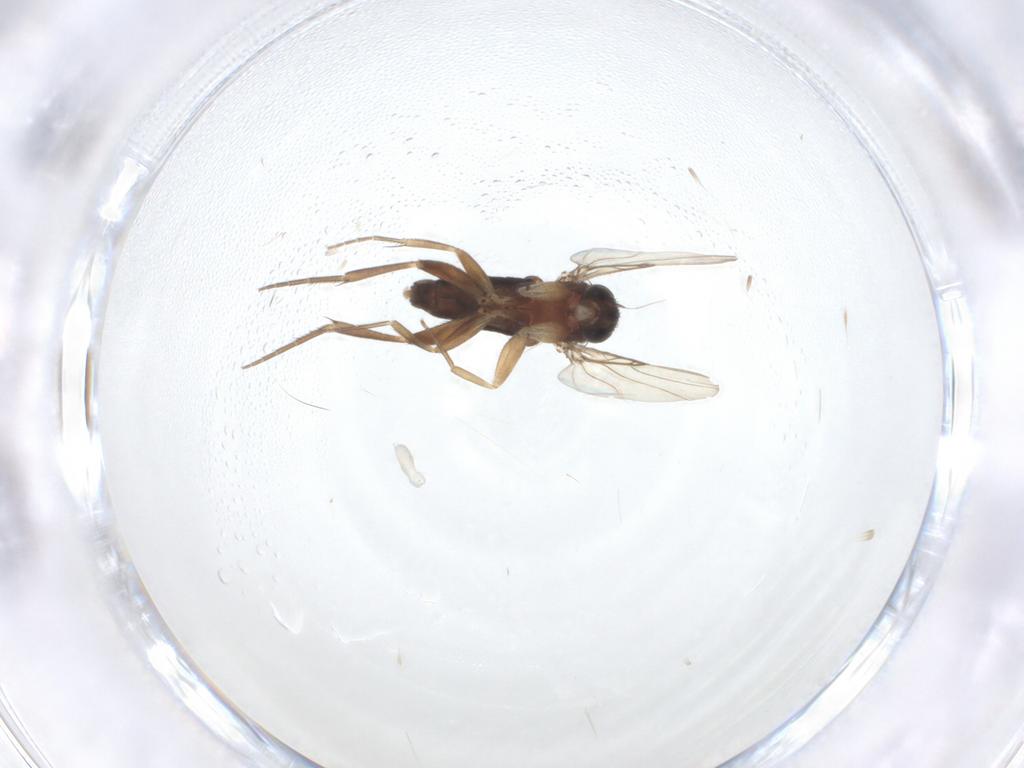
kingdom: Animalia
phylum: Arthropoda
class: Insecta
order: Diptera
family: Phoridae
